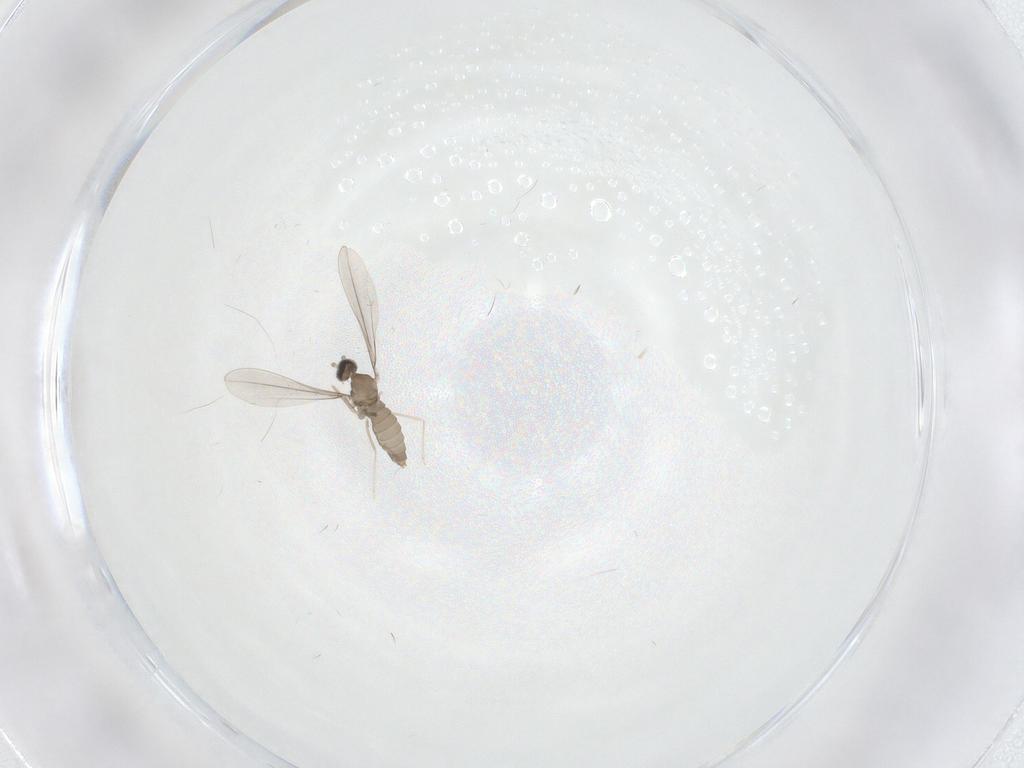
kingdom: Animalia
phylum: Arthropoda
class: Insecta
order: Diptera
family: Cecidomyiidae
